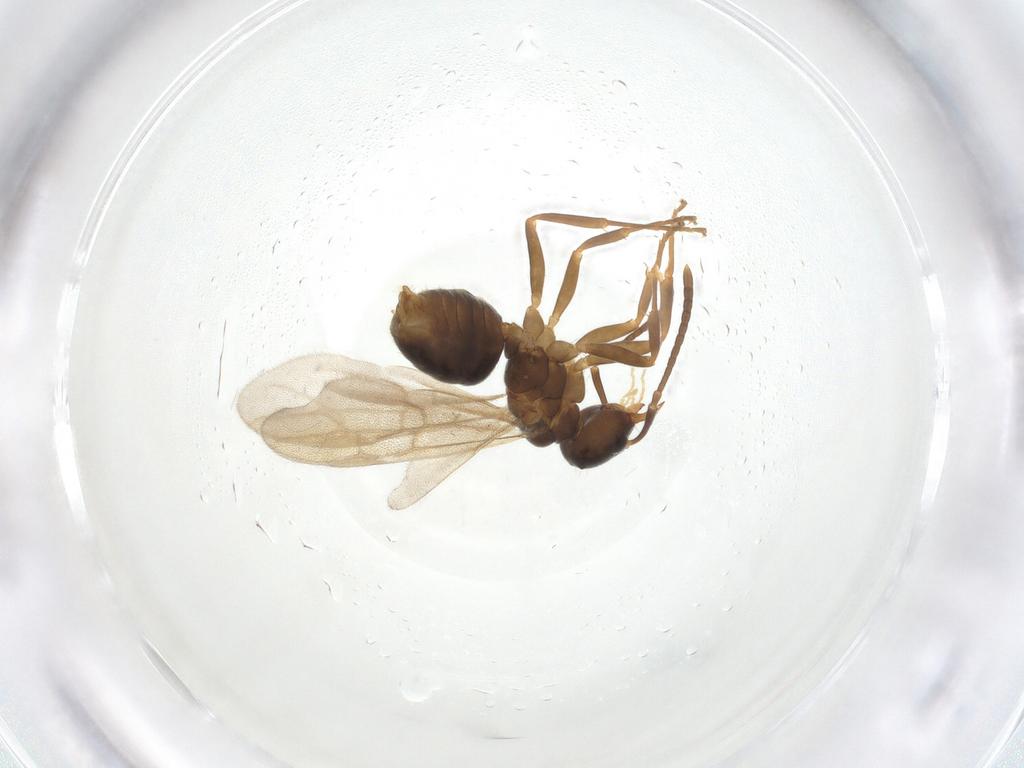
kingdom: Animalia
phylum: Arthropoda
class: Insecta
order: Hymenoptera
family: Formicidae
